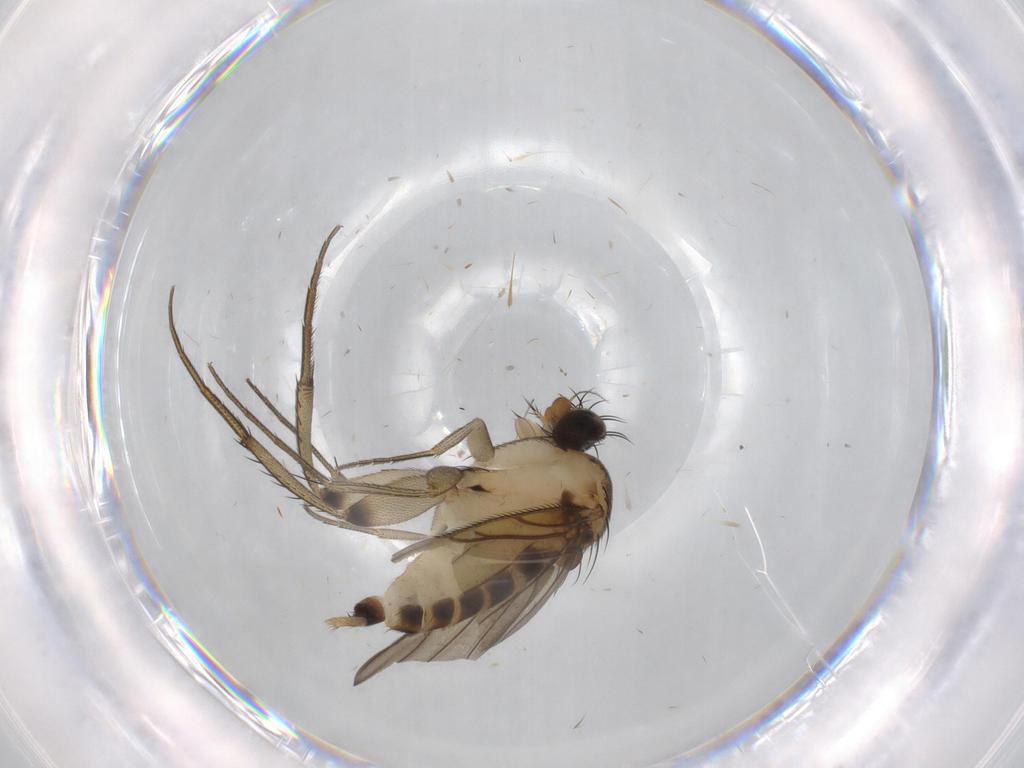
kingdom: Animalia
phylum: Arthropoda
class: Insecta
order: Diptera
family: Phoridae
